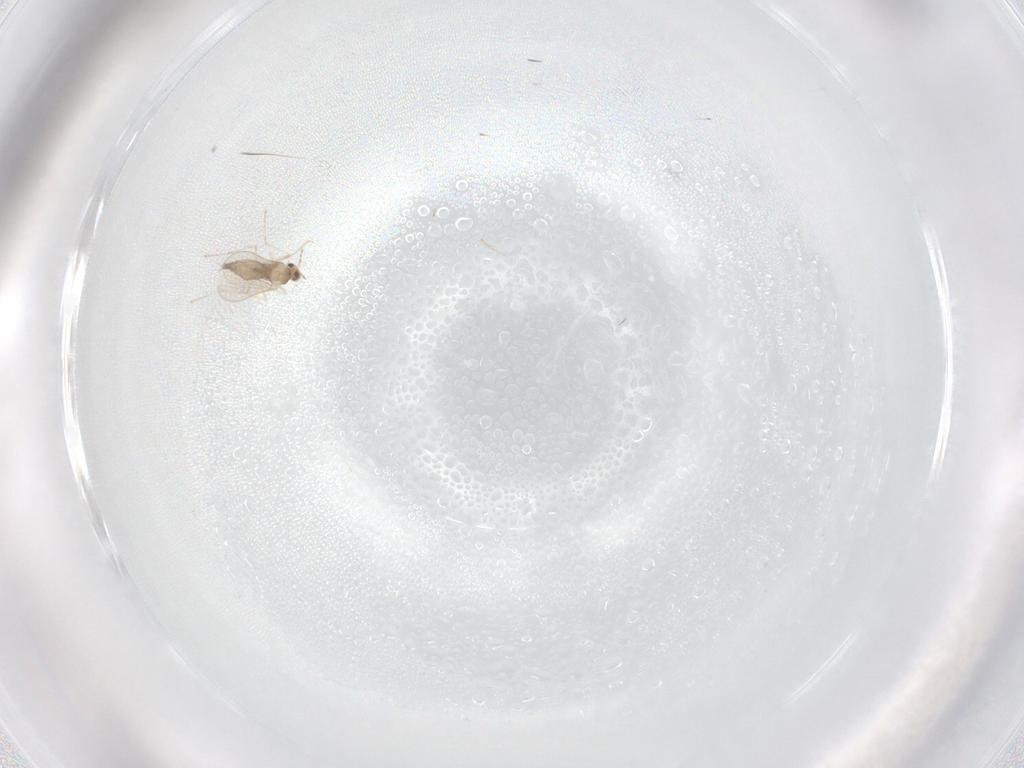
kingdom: Animalia
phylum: Arthropoda
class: Insecta
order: Diptera
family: Cecidomyiidae
